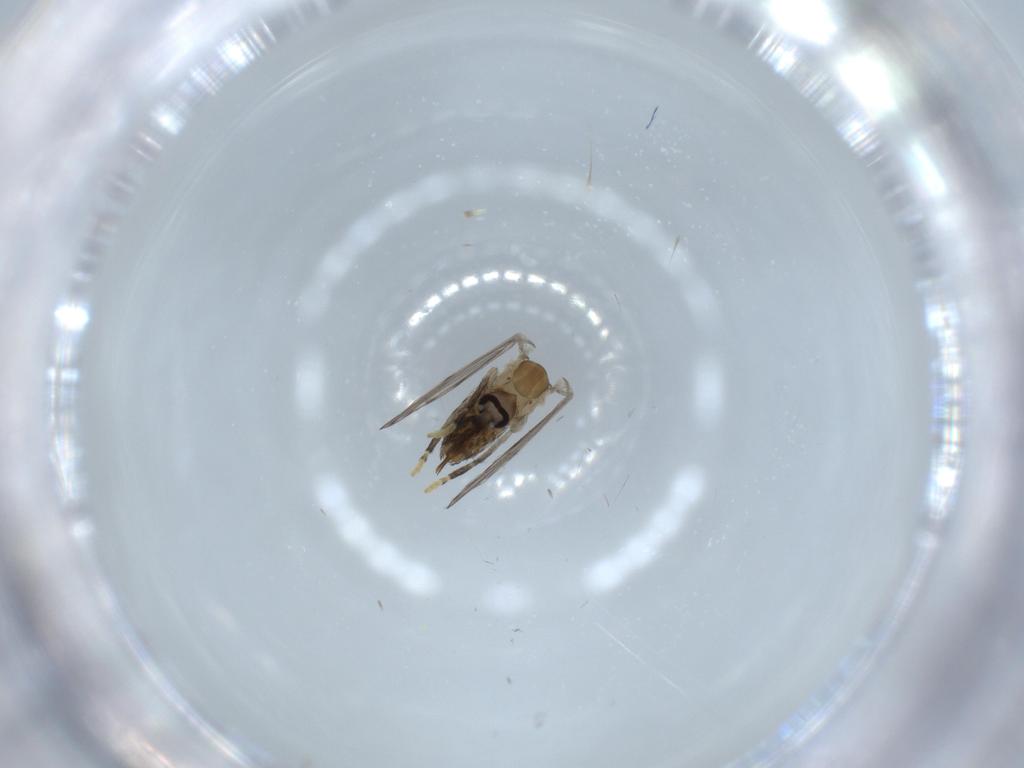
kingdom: Animalia
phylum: Arthropoda
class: Insecta
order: Diptera
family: Psychodidae
